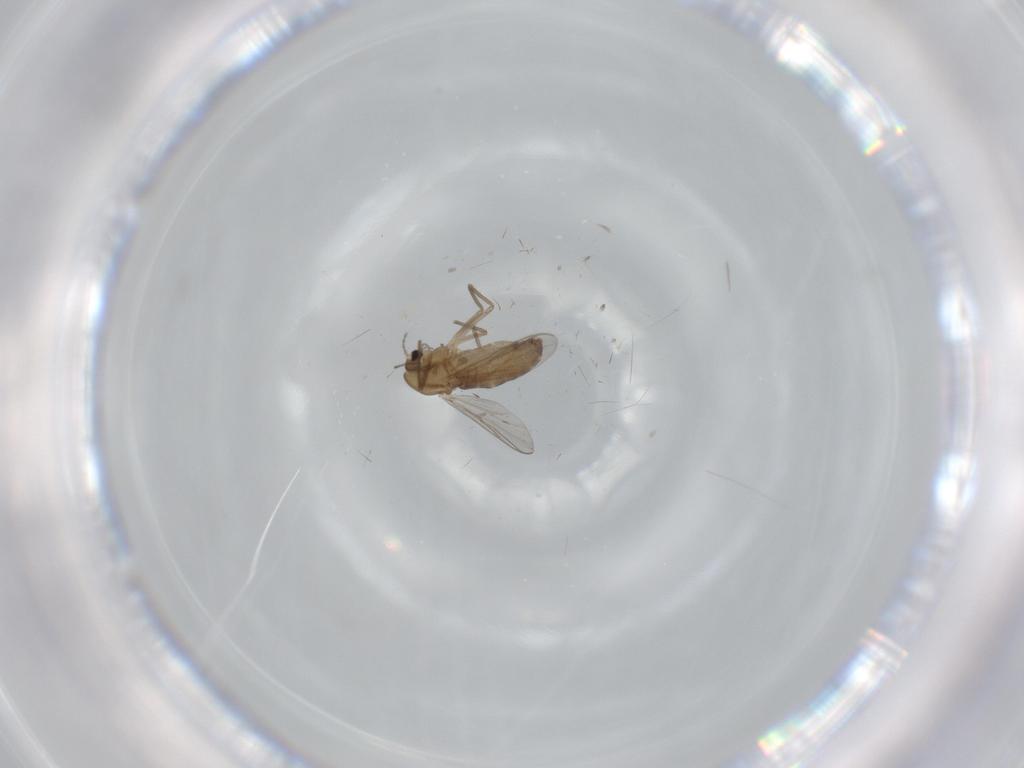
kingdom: Animalia
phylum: Arthropoda
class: Insecta
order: Diptera
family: Chironomidae
